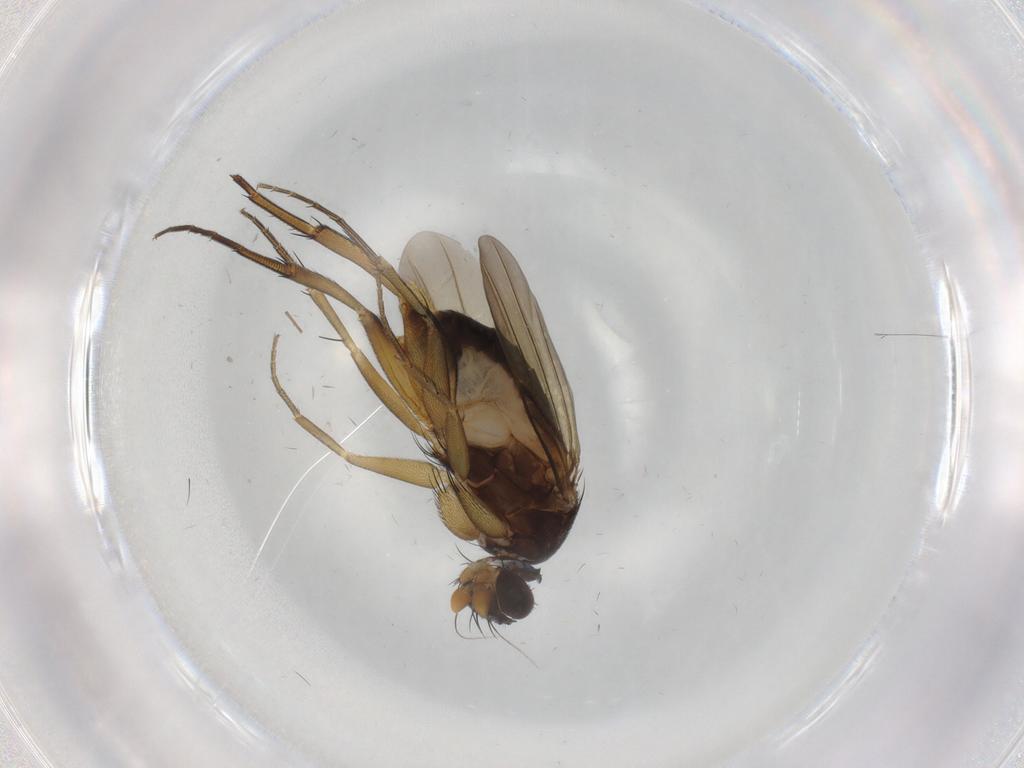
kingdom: Animalia
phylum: Arthropoda
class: Insecta
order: Diptera
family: Phoridae
